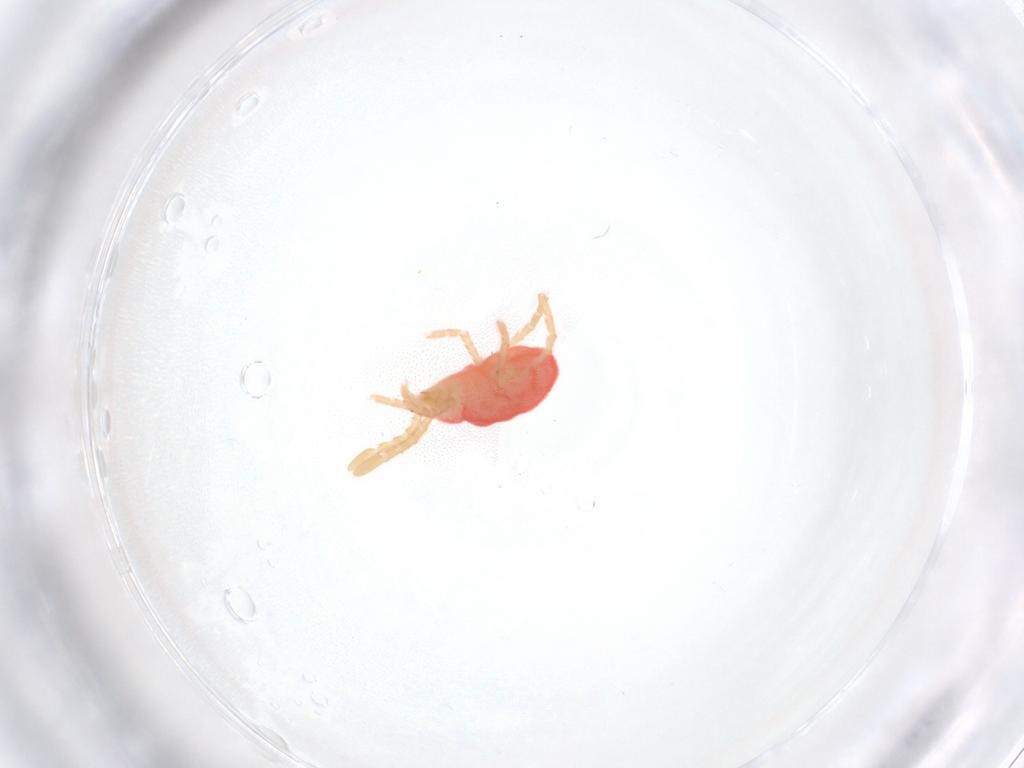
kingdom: Animalia
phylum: Arthropoda
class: Arachnida
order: Trombidiformes
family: Microtrombidiidae
